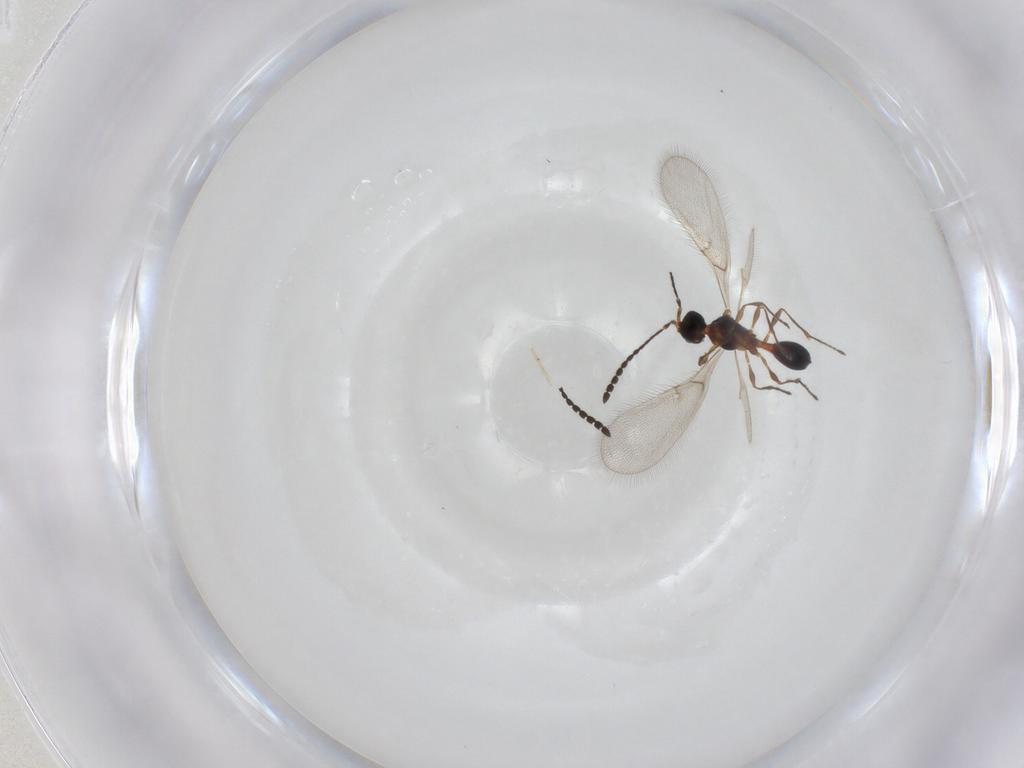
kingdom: Animalia
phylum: Arthropoda
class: Insecta
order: Hymenoptera
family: Diapriidae
